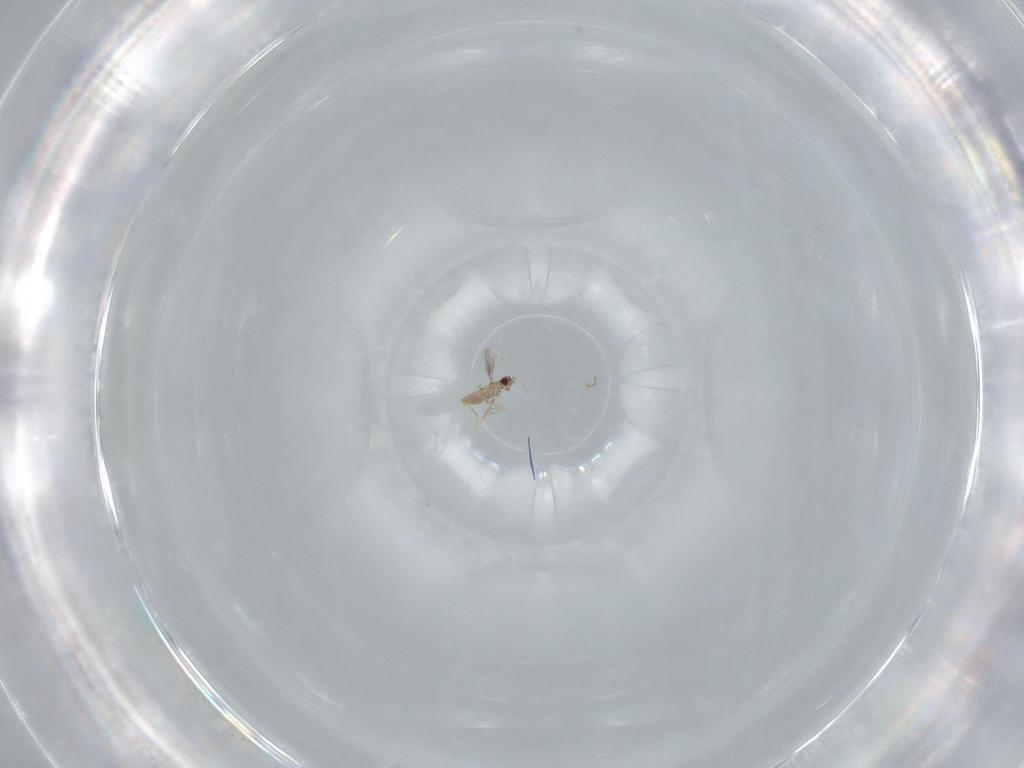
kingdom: Animalia
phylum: Arthropoda
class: Insecta
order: Hymenoptera
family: Mymaridae
